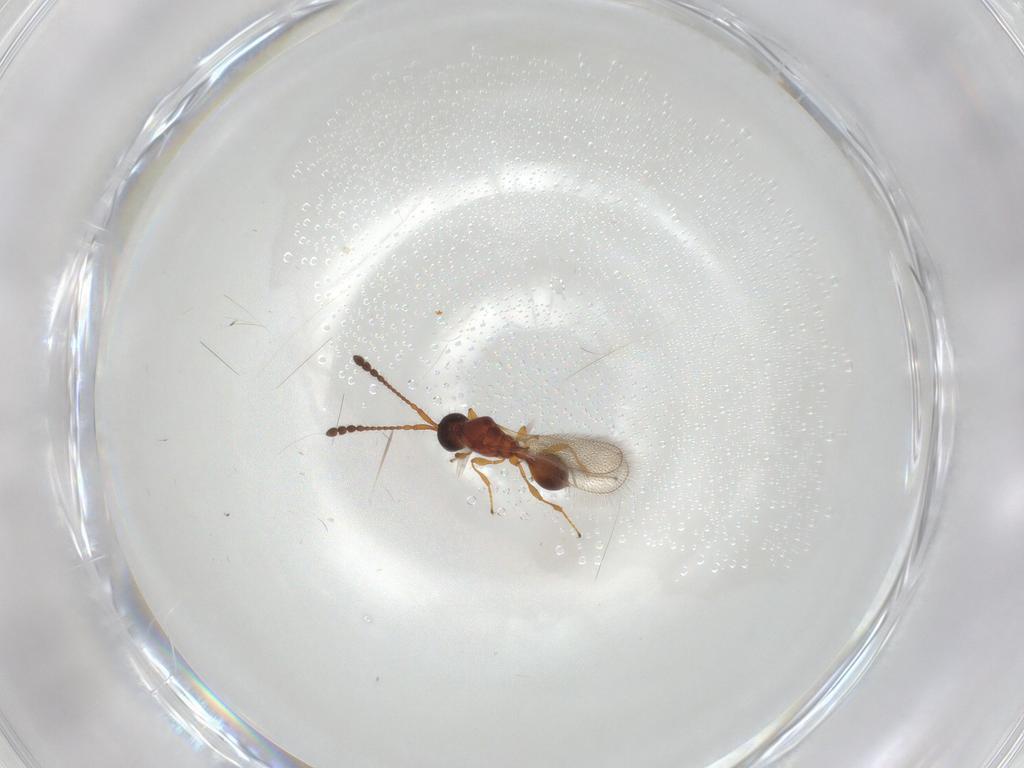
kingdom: Animalia
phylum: Arthropoda
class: Insecta
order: Hymenoptera
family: Diapriidae
